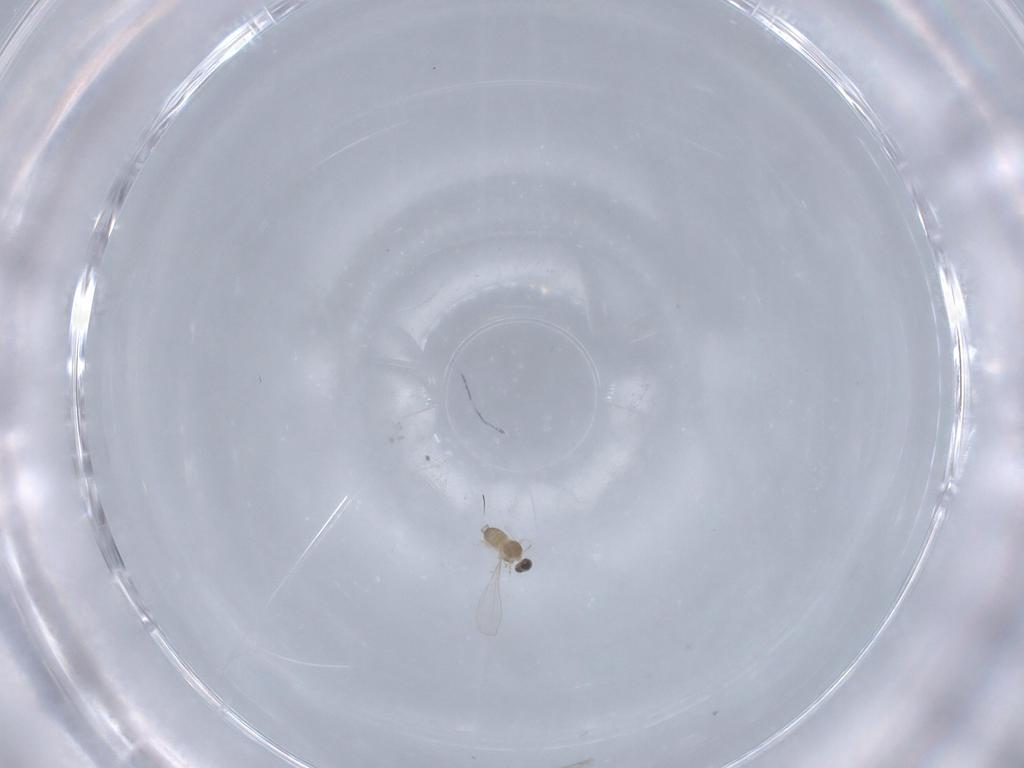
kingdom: Animalia
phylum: Arthropoda
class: Insecta
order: Diptera
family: Cecidomyiidae
